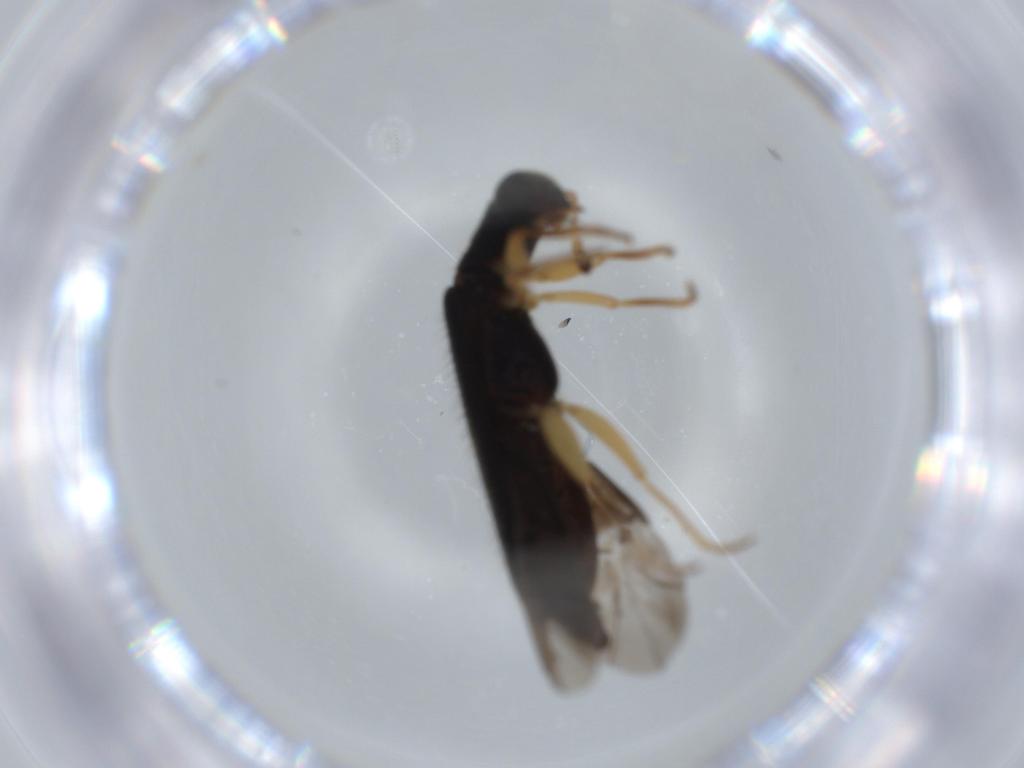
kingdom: Animalia
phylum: Arthropoda
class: Insecta
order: Coleoptera
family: Cleridae
